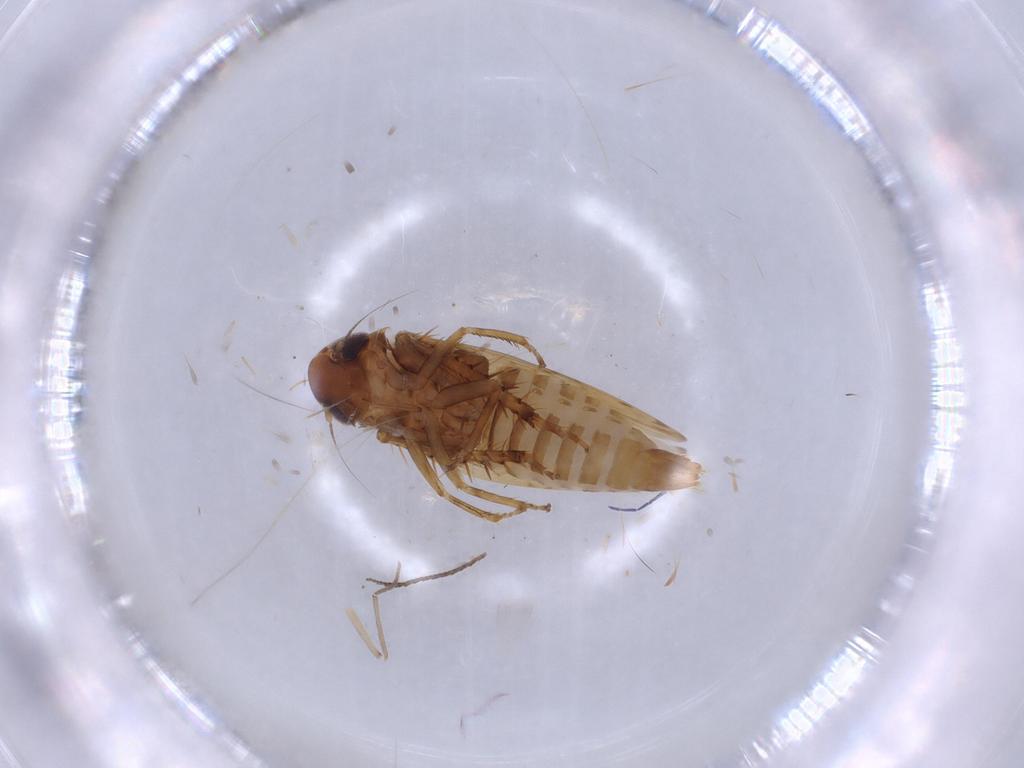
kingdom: Animalia
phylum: Arthropoda
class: Insecta
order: Hemiptera
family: Cicadellidae
